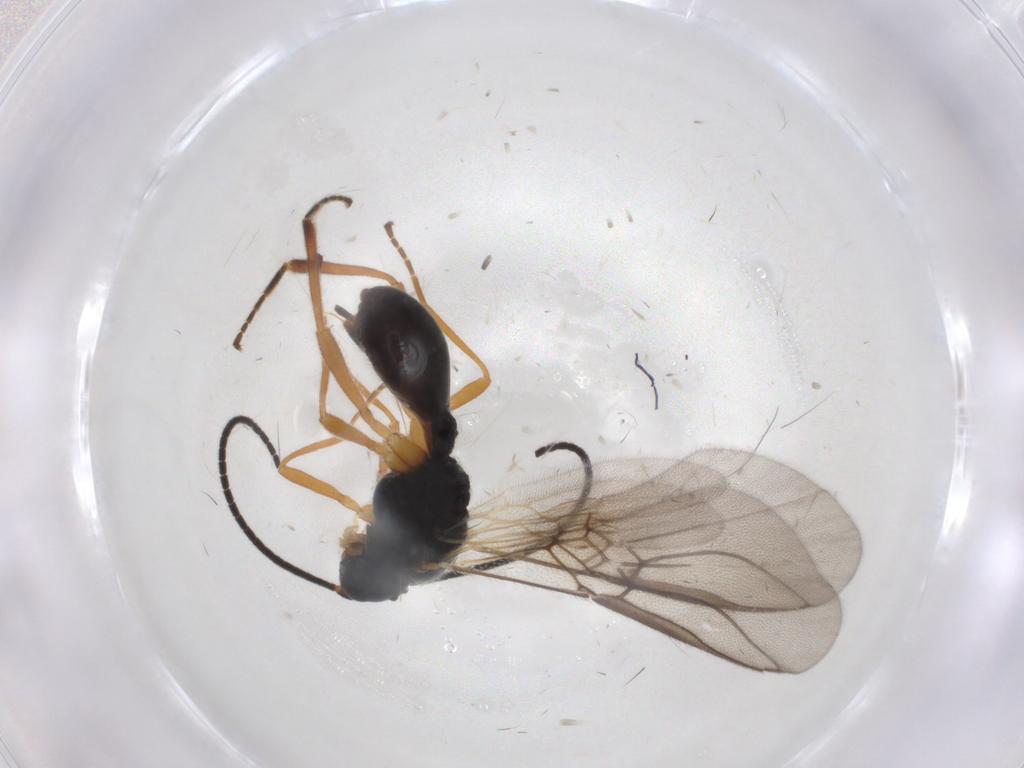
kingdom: Animalia
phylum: Arthropoda
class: Insecta
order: Hymenoptera
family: Braconidae
